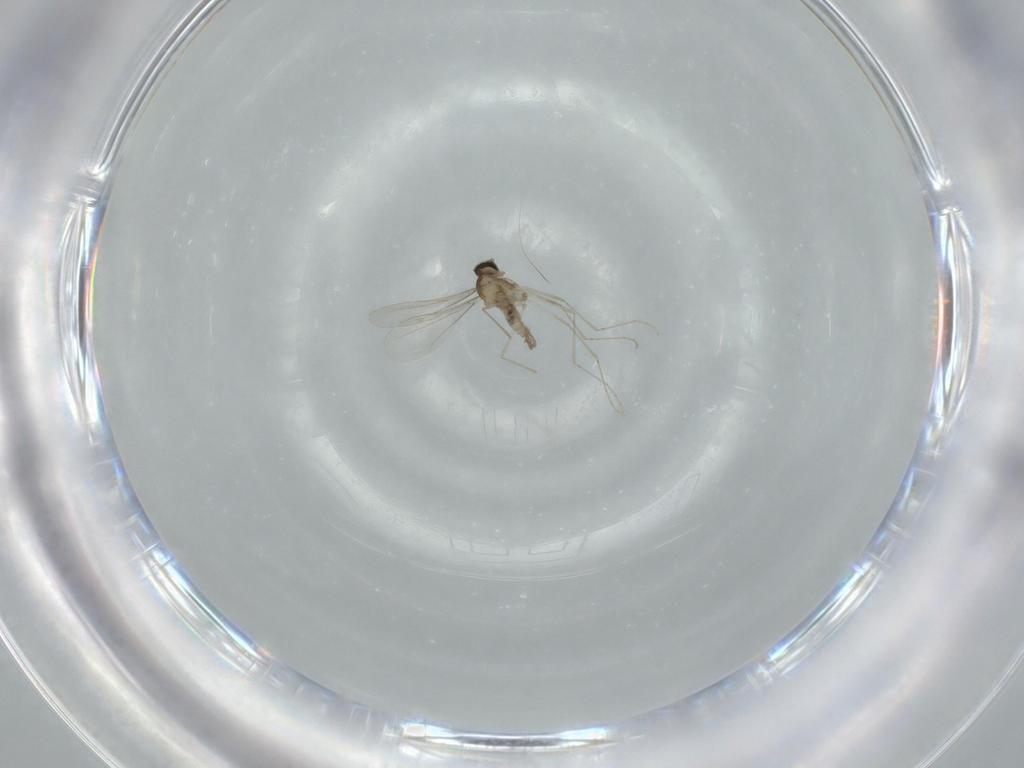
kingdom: Animalia
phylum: Arthropoda
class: Insecta
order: Diptera
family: Cecidomyiidae
